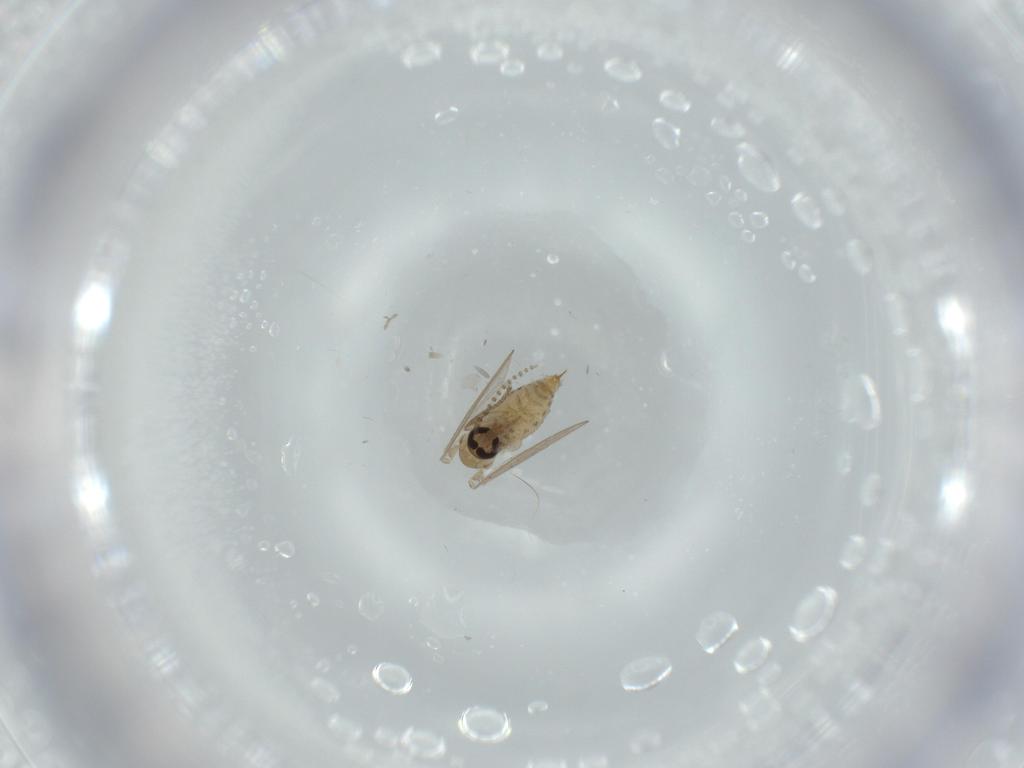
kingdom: Animalia
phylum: Arthropoda
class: Insecta
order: Diptera
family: Psychodidae
